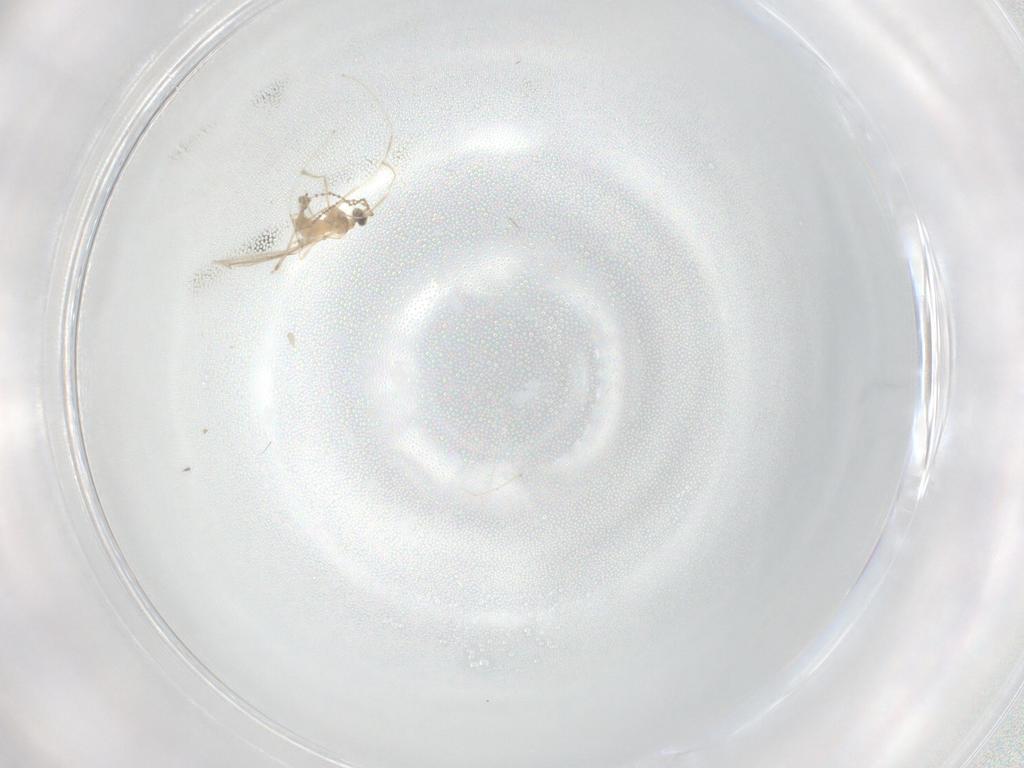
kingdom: Animalia
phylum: Arthropoda
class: Insecta
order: Diptera
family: Cecidomyiidae
